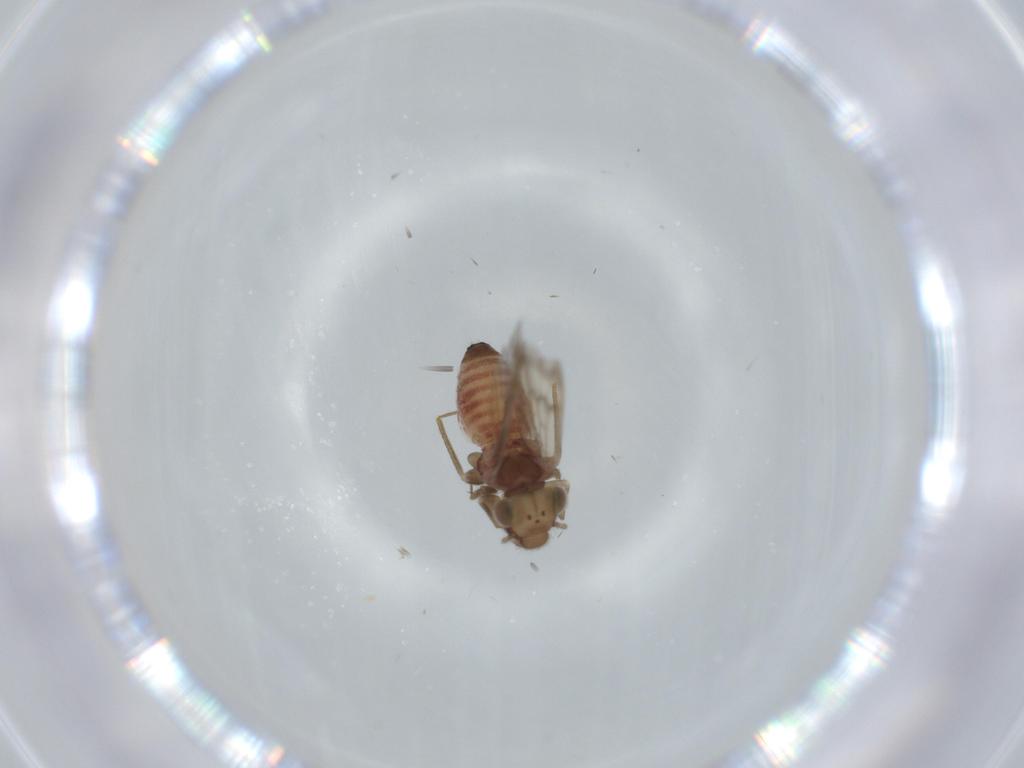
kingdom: Animalia
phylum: Arthropoda
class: Insecta
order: Psocodea
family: Lepidopsocidae
